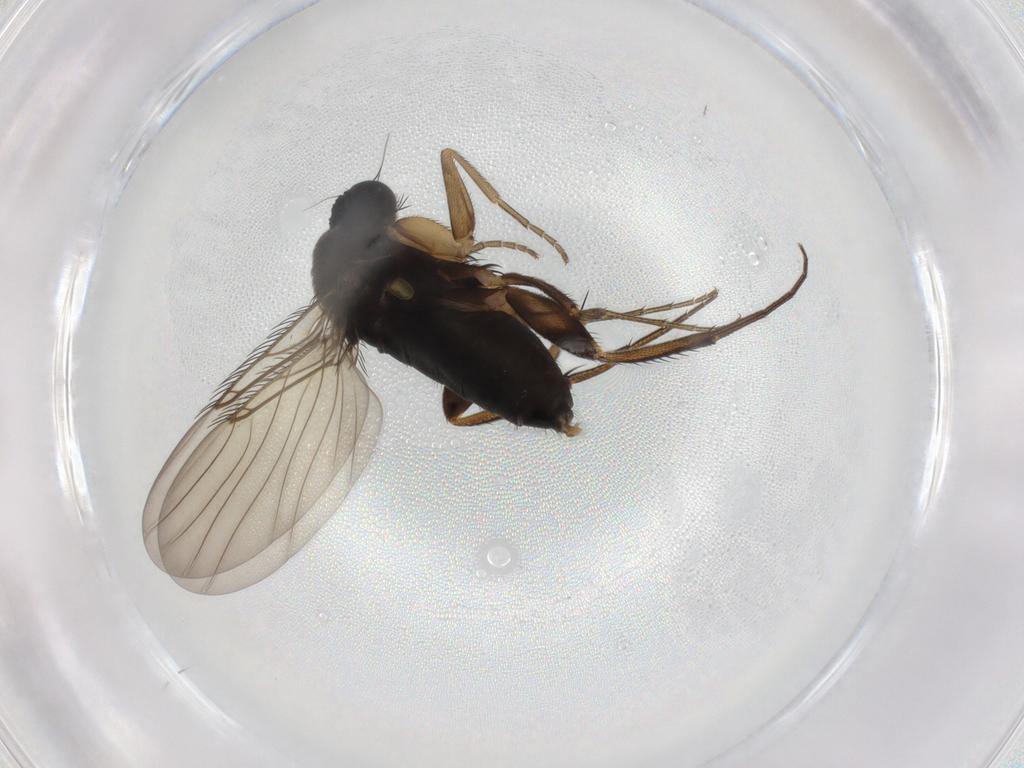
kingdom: Animalia
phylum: Arthropoda
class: Insecta
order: Diptera
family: Phoridae
